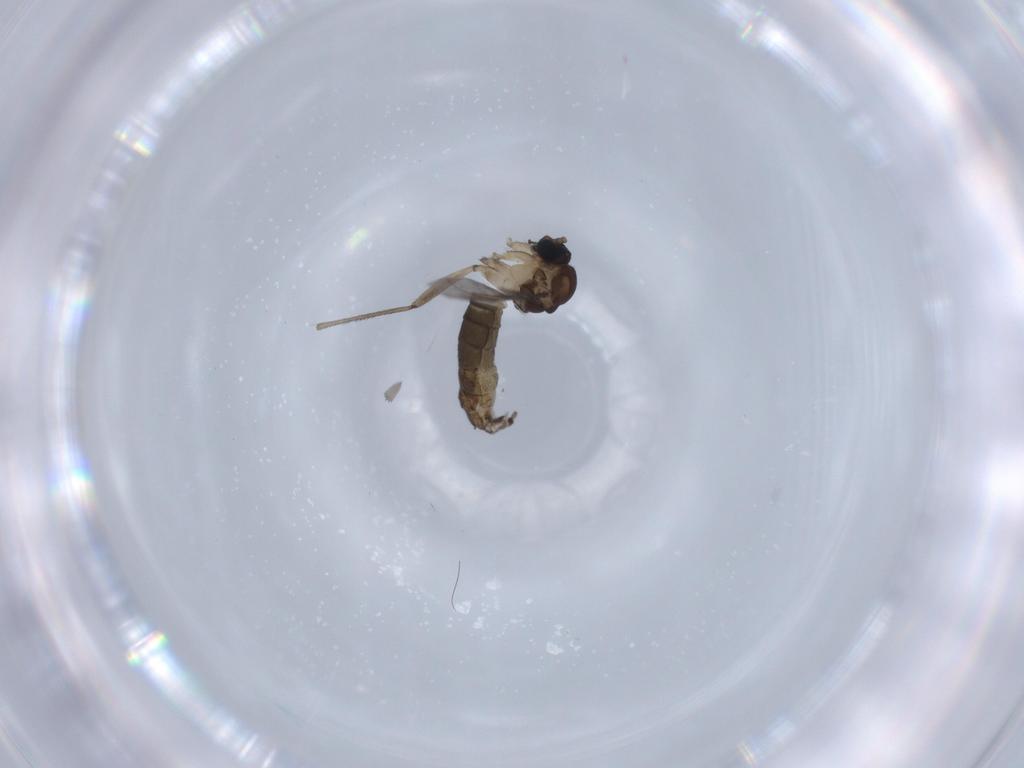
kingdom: Animalia
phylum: Arthropoda
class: Insecta
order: Diptera
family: Sciaridae
